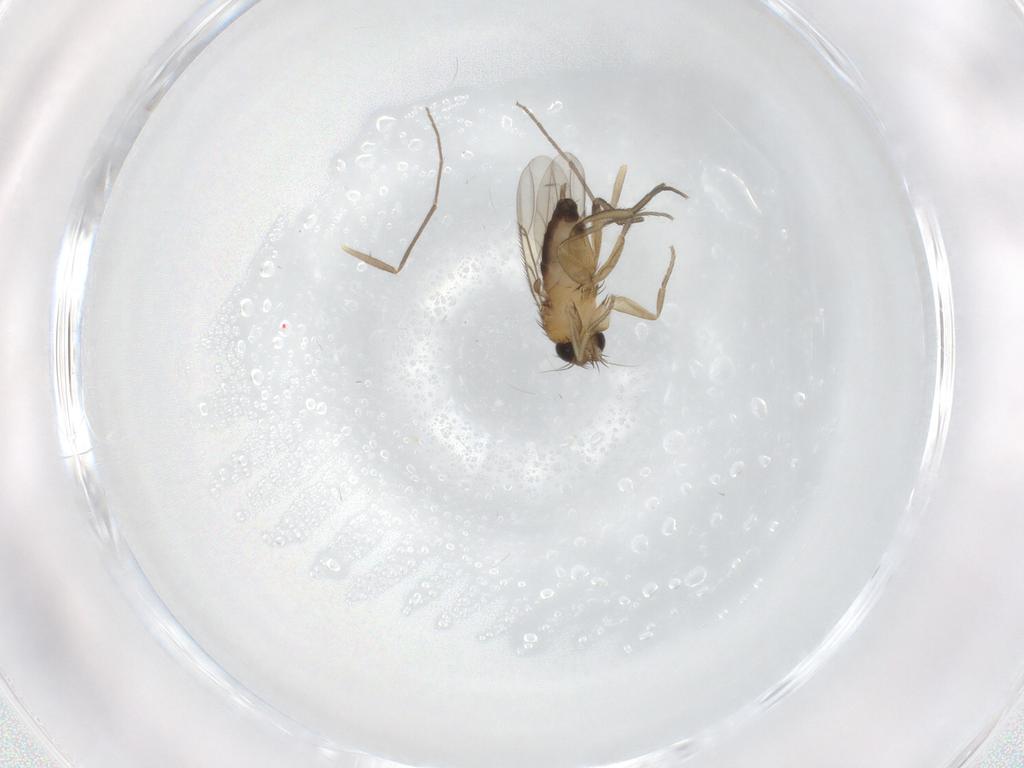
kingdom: Animalia
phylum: Arthropoda
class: Insecta
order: Diptera
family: Phoridae
